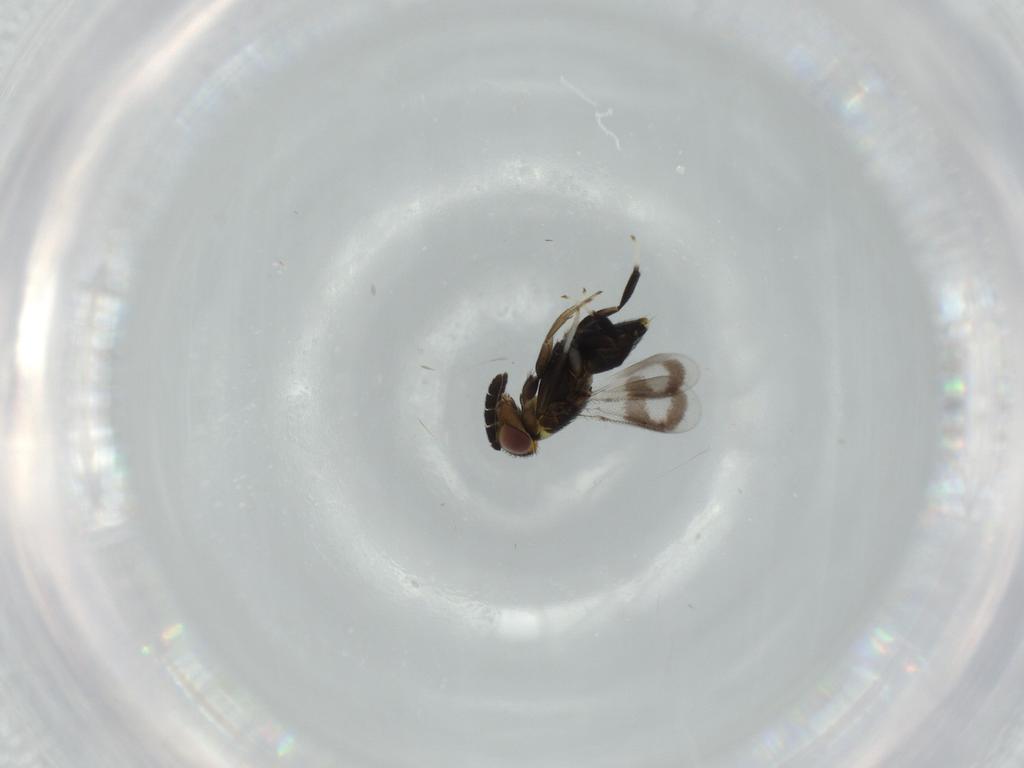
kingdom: Animalia
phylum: Arthropoda
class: Insecta
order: Hymenoptera
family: Aphelinidae
